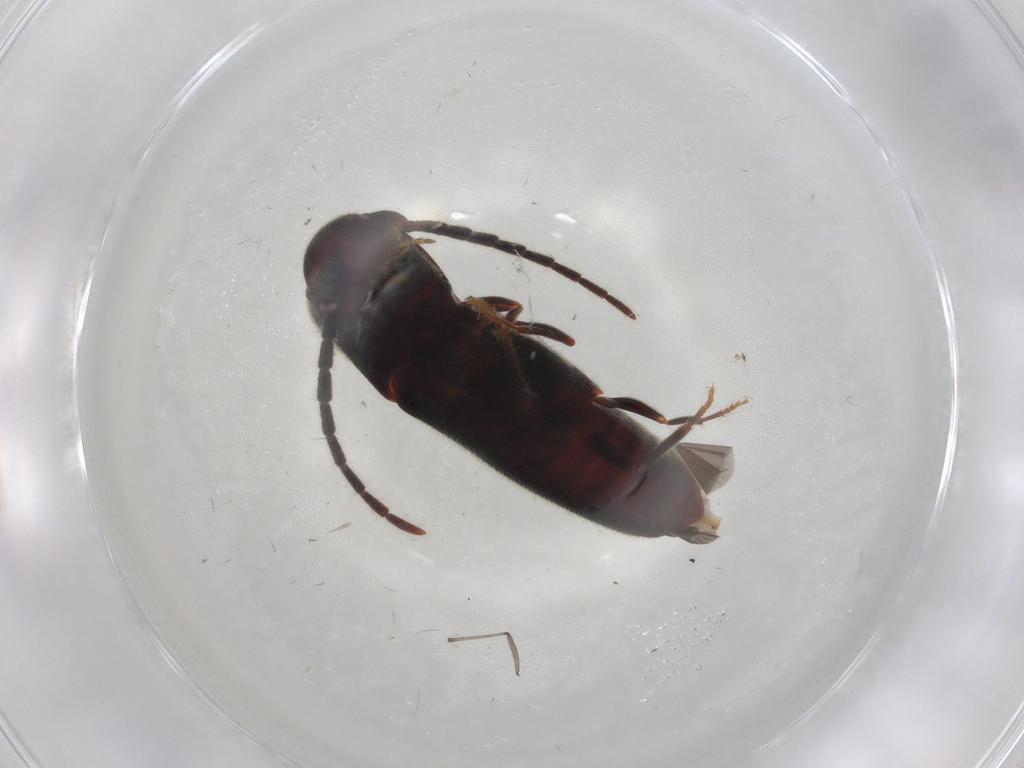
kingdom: Animalia
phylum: Arthropoda
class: Insecta
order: Coleoptera
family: Eucnemidae
